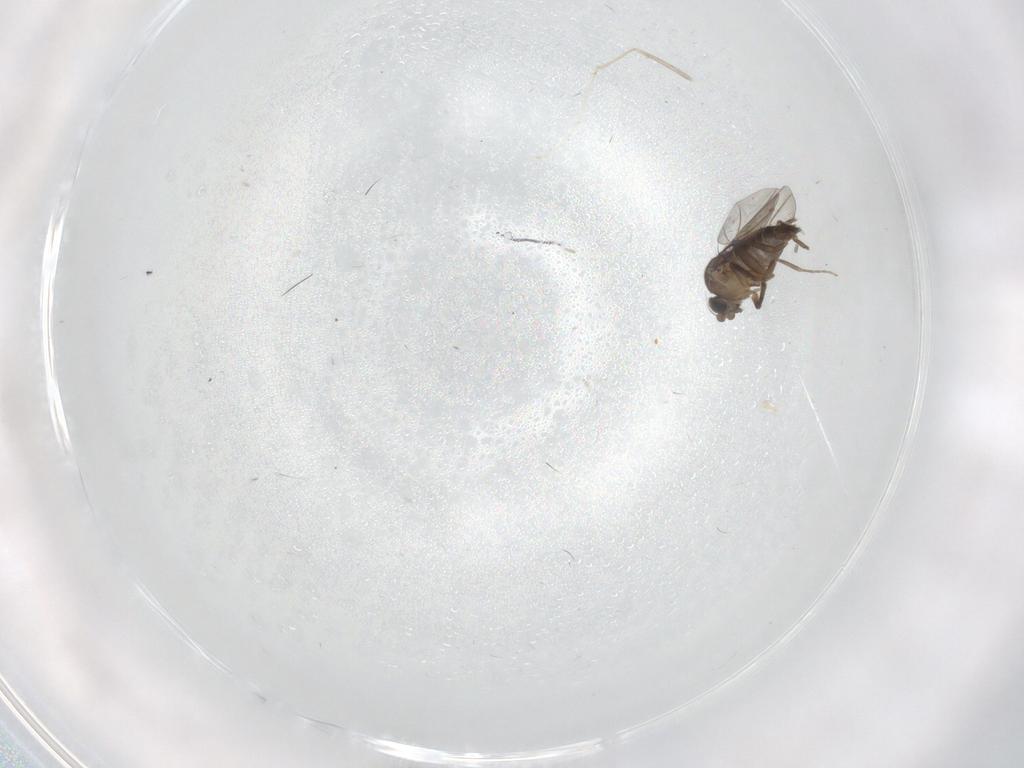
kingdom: Animalia
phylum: Arthropoda
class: Insecta
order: Diptera
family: Phoridae
